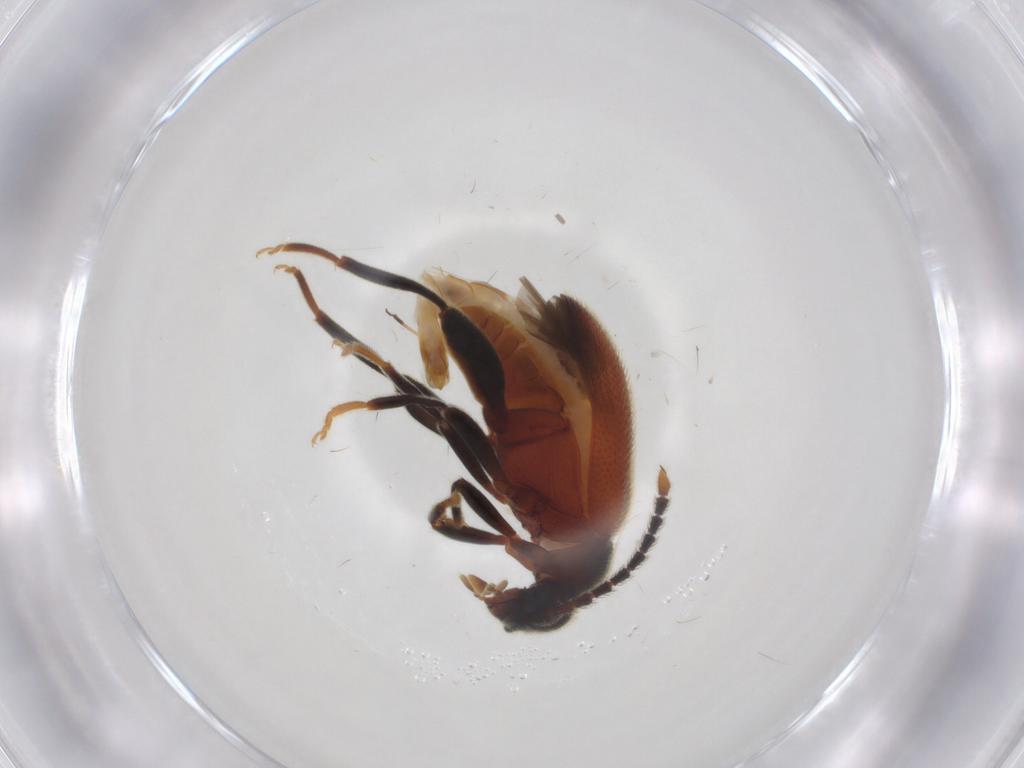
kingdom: Animalia
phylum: Arthropoda
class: Insecta
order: Coleoptera
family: Aderidae
